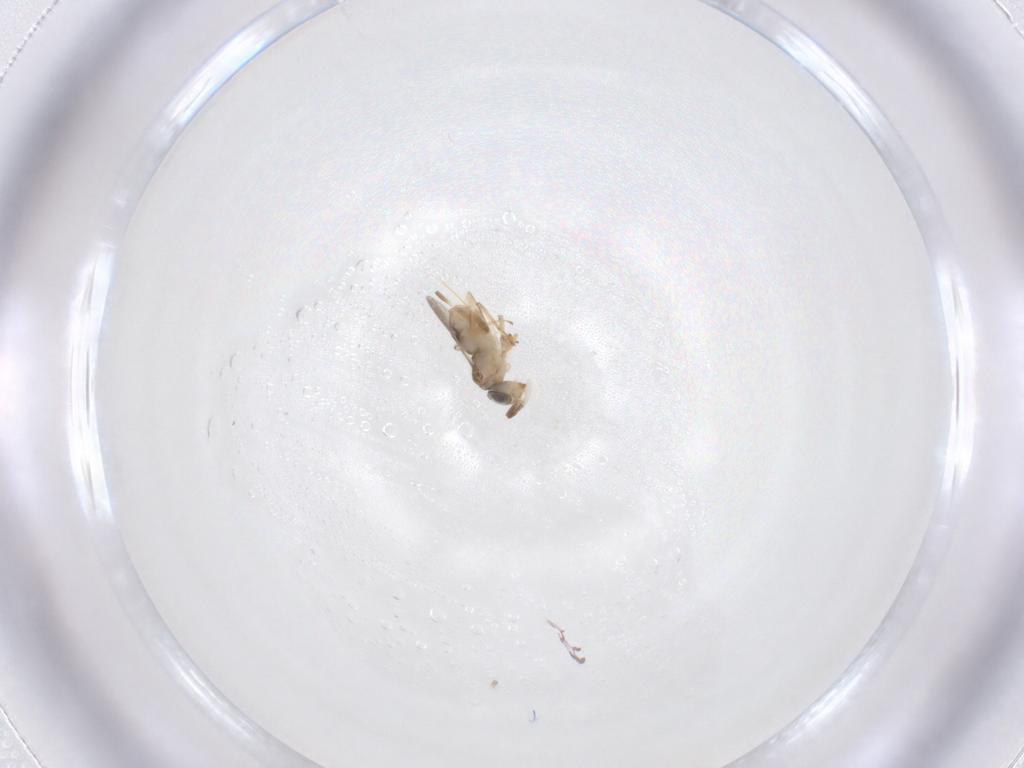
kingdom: Animalia
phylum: Arthropoda
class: Insecta
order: Hymenoptera
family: Encyrtidae
